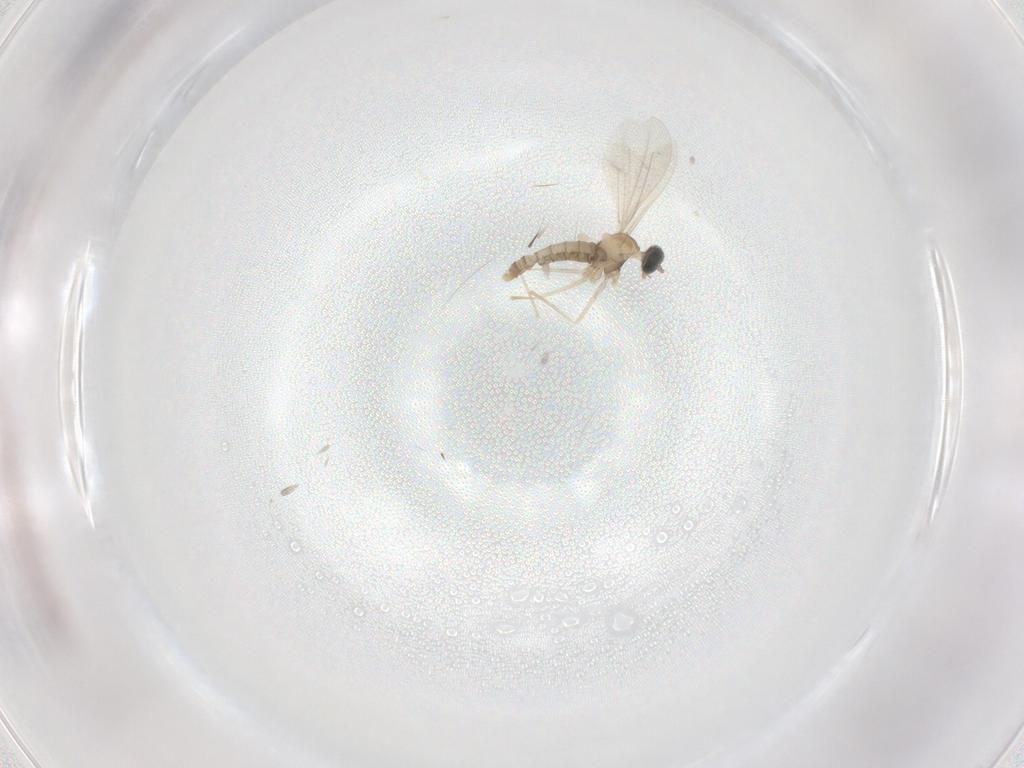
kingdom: Animalia
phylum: Arthropoda
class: Insecta
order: Diptera
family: Cecidomyiidae
